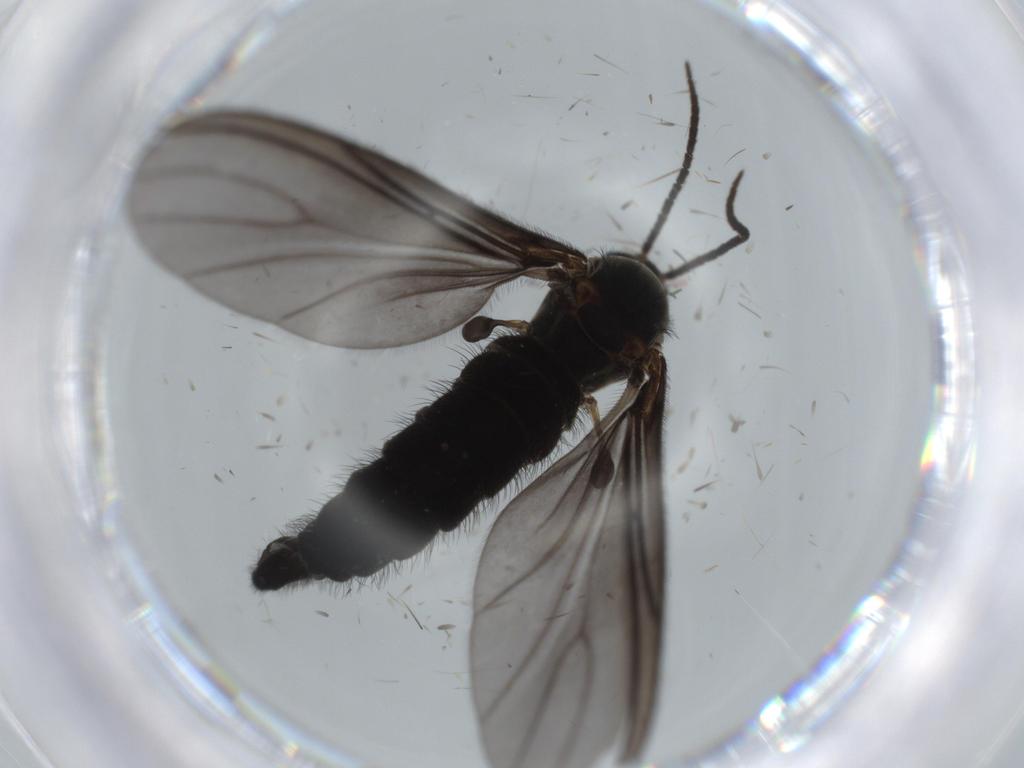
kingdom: Animalia
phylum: Arthropoda
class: Insecta
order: Diptera
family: Sciaridae
